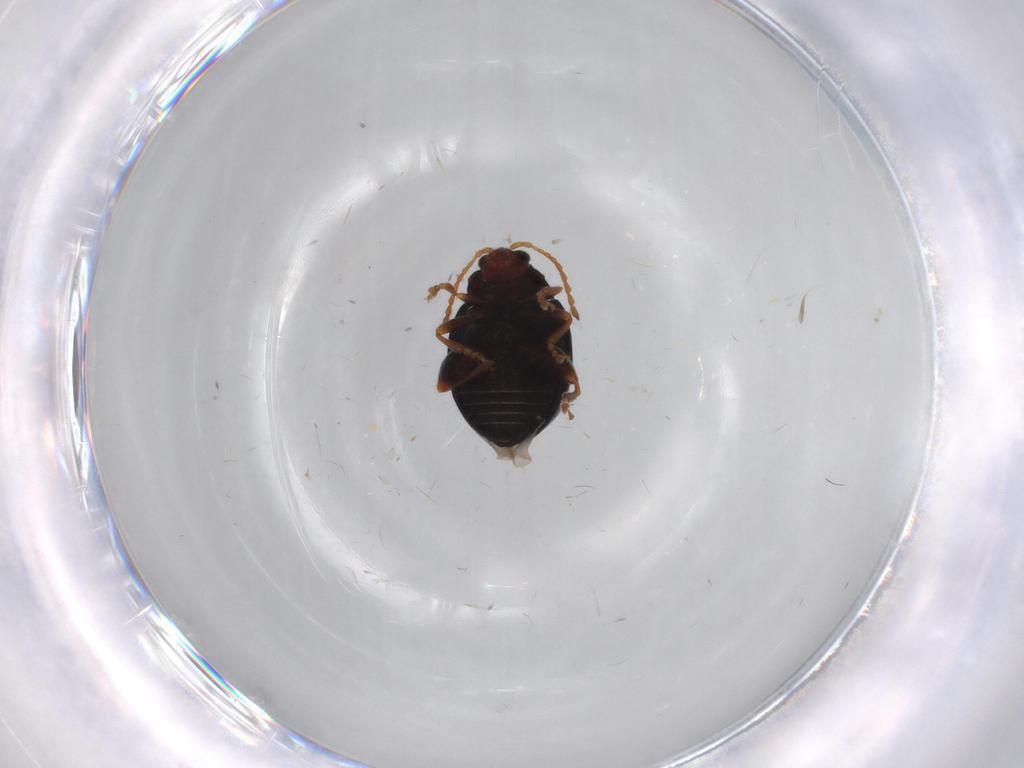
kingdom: Animalia
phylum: Arthropoda
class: Insecta
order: Coleoptera
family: Chrysomelidae
